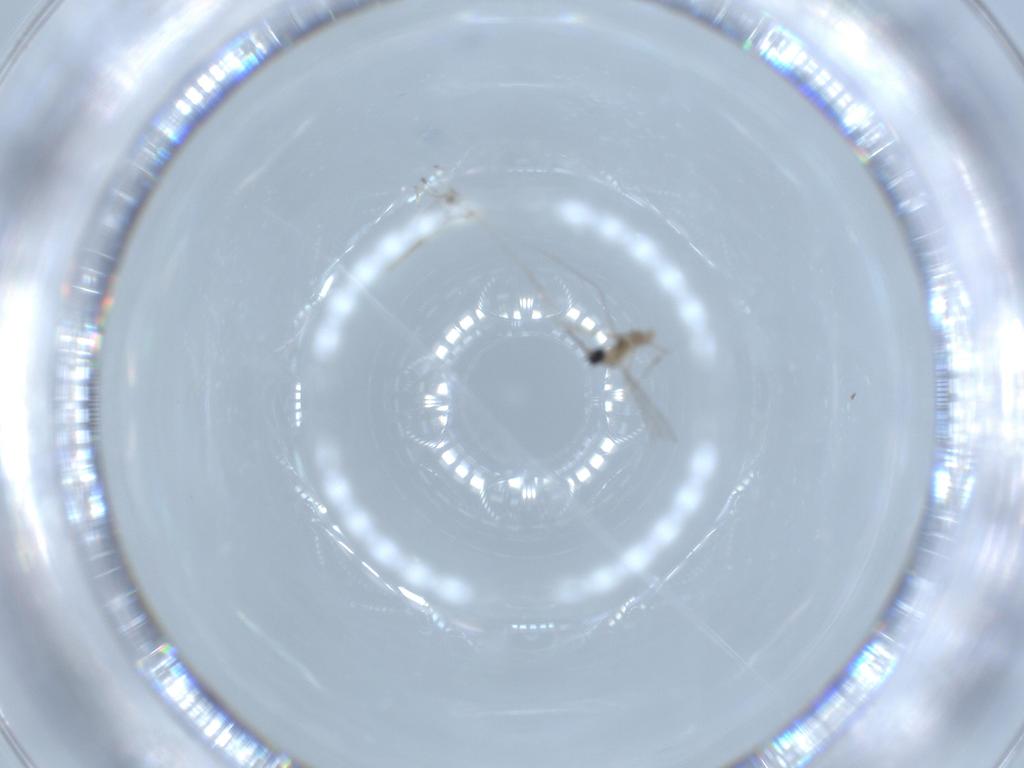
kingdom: Animalia
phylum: Arthropoda
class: Insecta
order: Diptera
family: Cecidomyiidae
